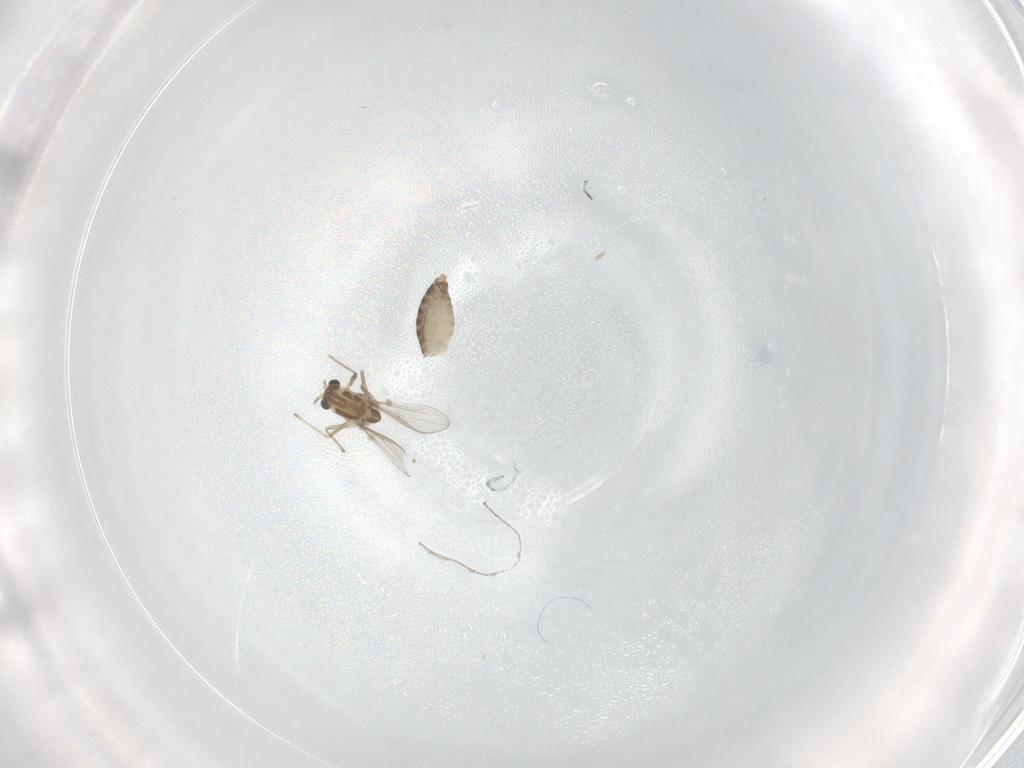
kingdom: Animalia
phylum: Arthropoda
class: Insecta
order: Diptera
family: Chironomidae
